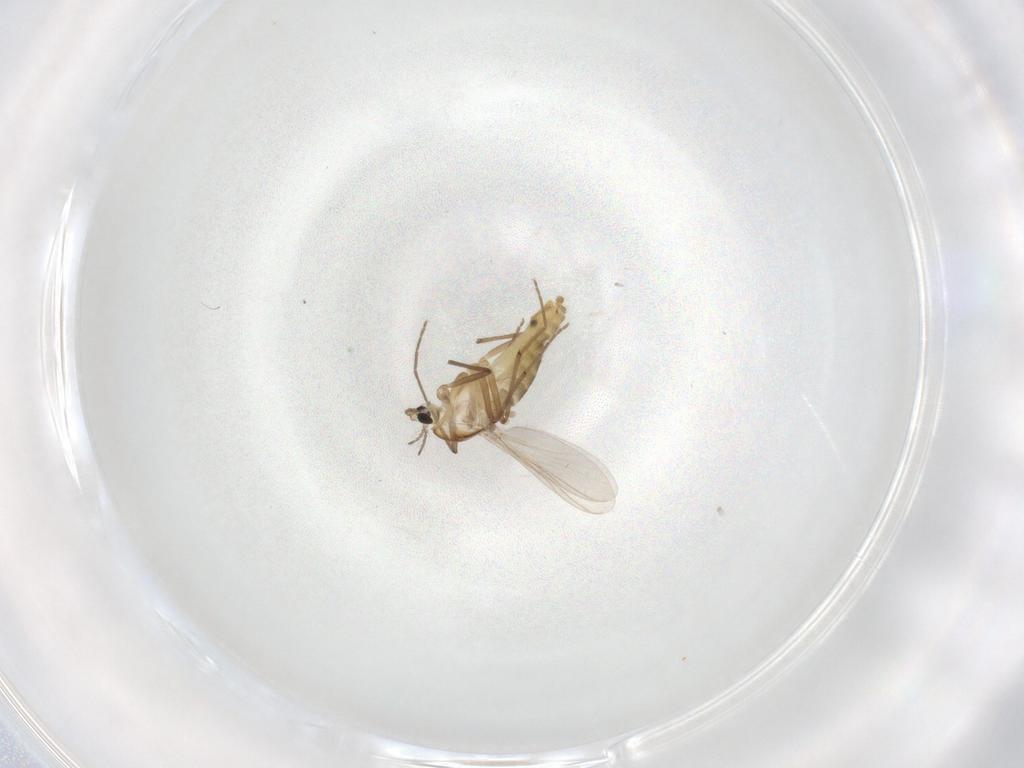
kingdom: Animalia
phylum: Arthropoda
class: Insecta
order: Diptera
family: Chironomidae
